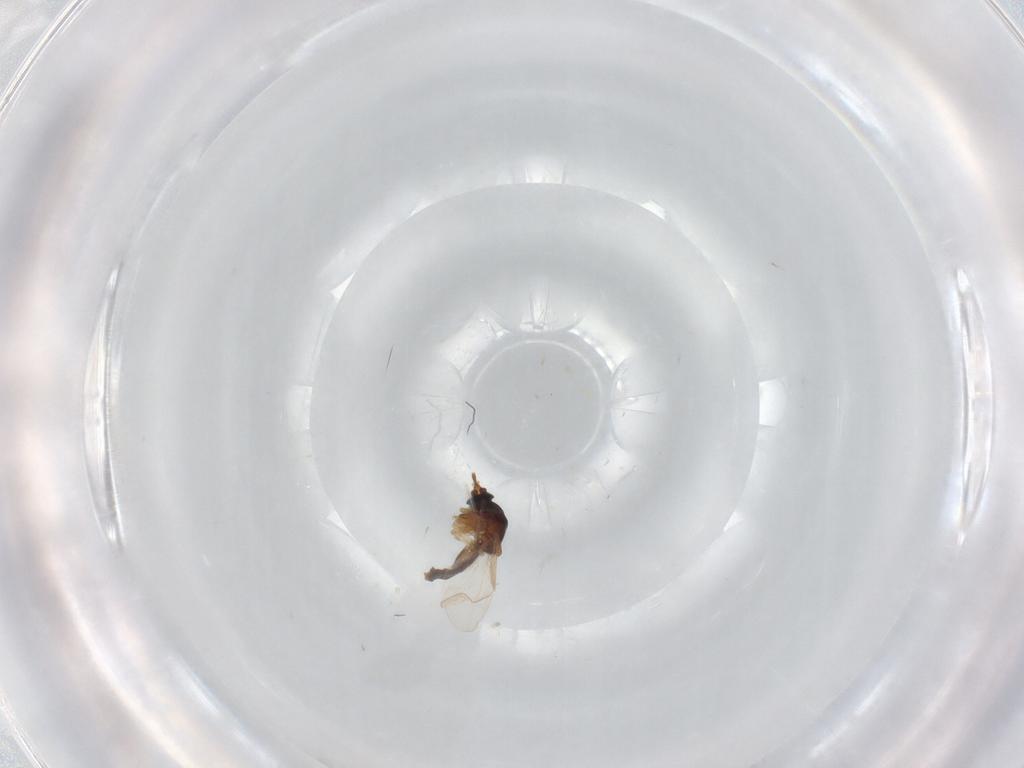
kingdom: Animalia
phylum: Arthropoda
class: Insecta
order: Diptera
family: Ceratopogonidae
